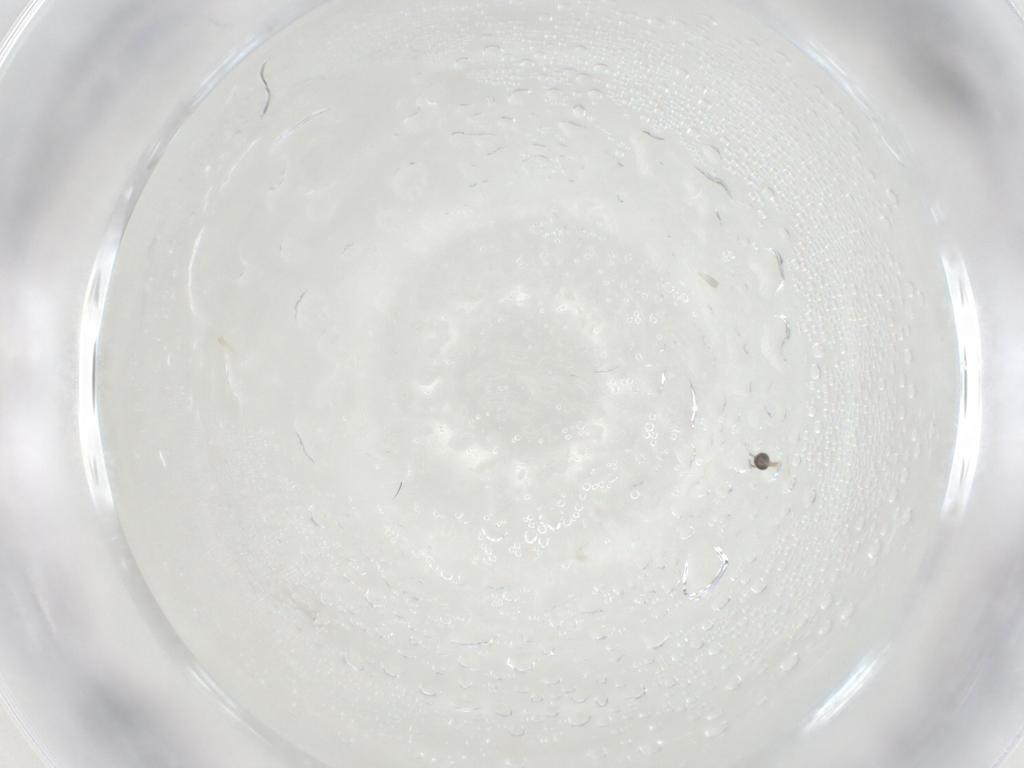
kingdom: Animalia
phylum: Arthropoda
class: Insecta
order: Diptera
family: Cecidomyiidae
